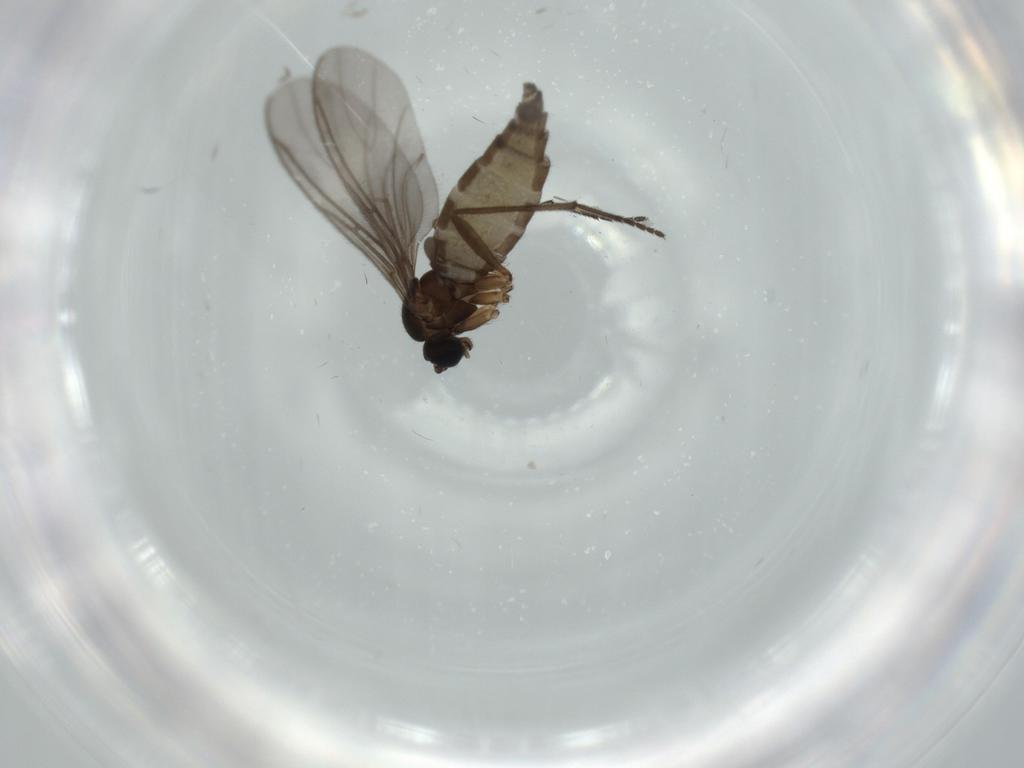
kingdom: Animalia
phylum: Arthropoda
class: Insecta
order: Diptera
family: Sciaridae
